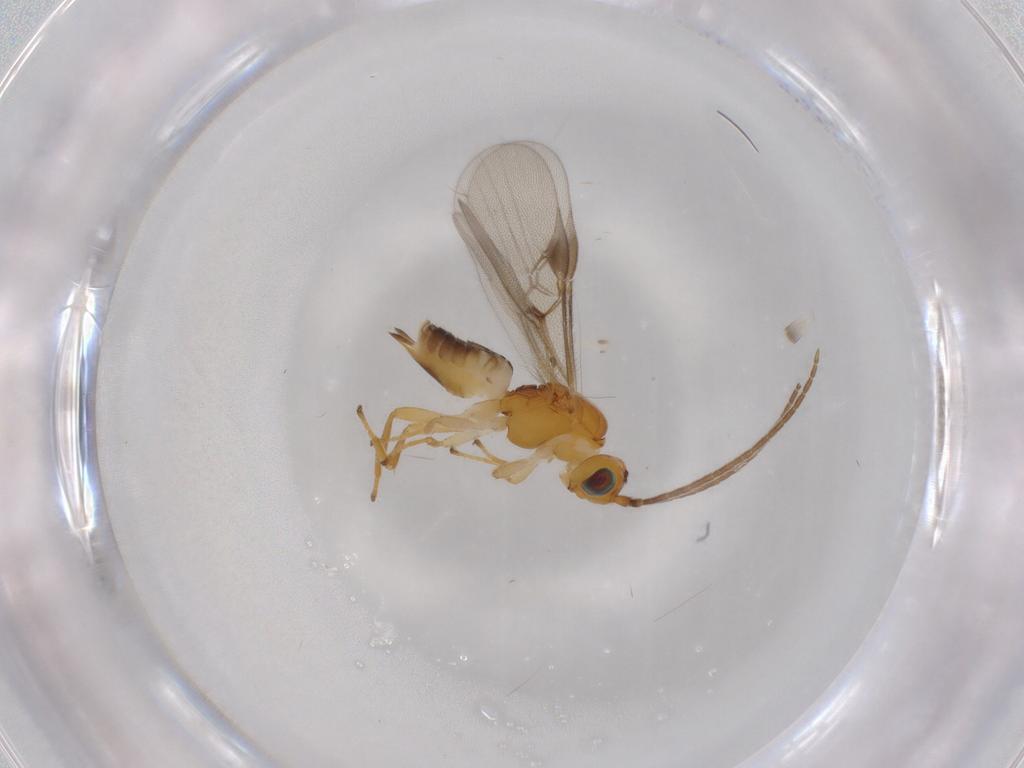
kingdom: Animalia
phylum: Arthropoda
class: Insecta
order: Hymenoptera
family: Braconidae
